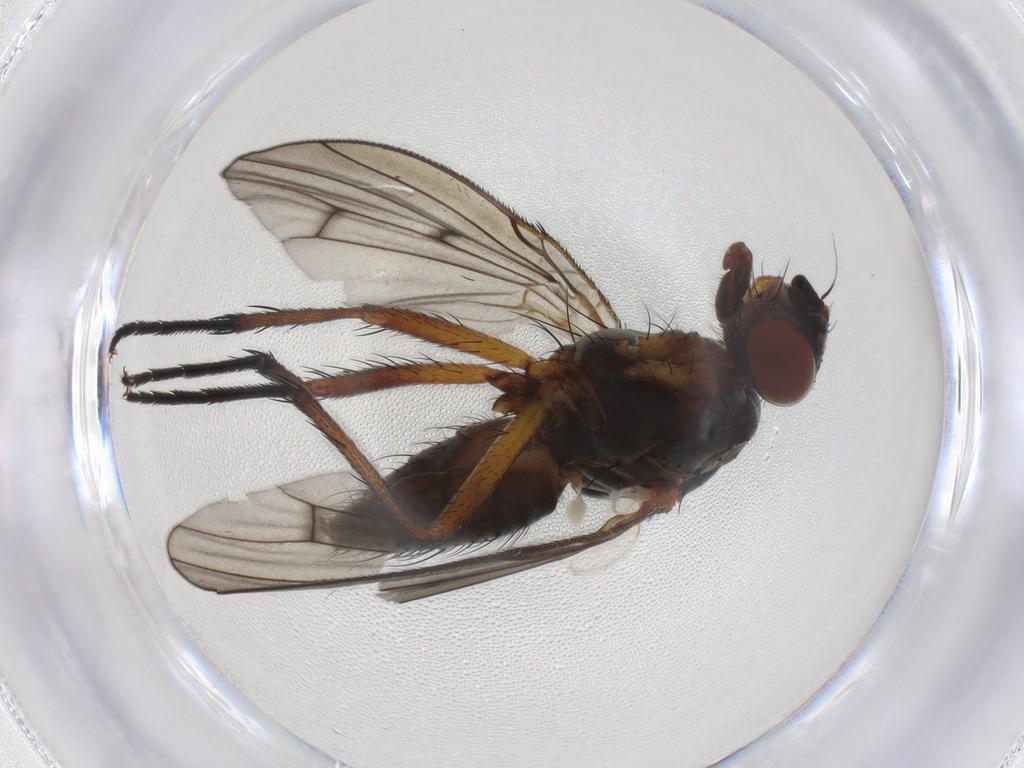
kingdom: Animalia
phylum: Arthropoda
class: Insecta
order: Diptera
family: Anthomyiidae
